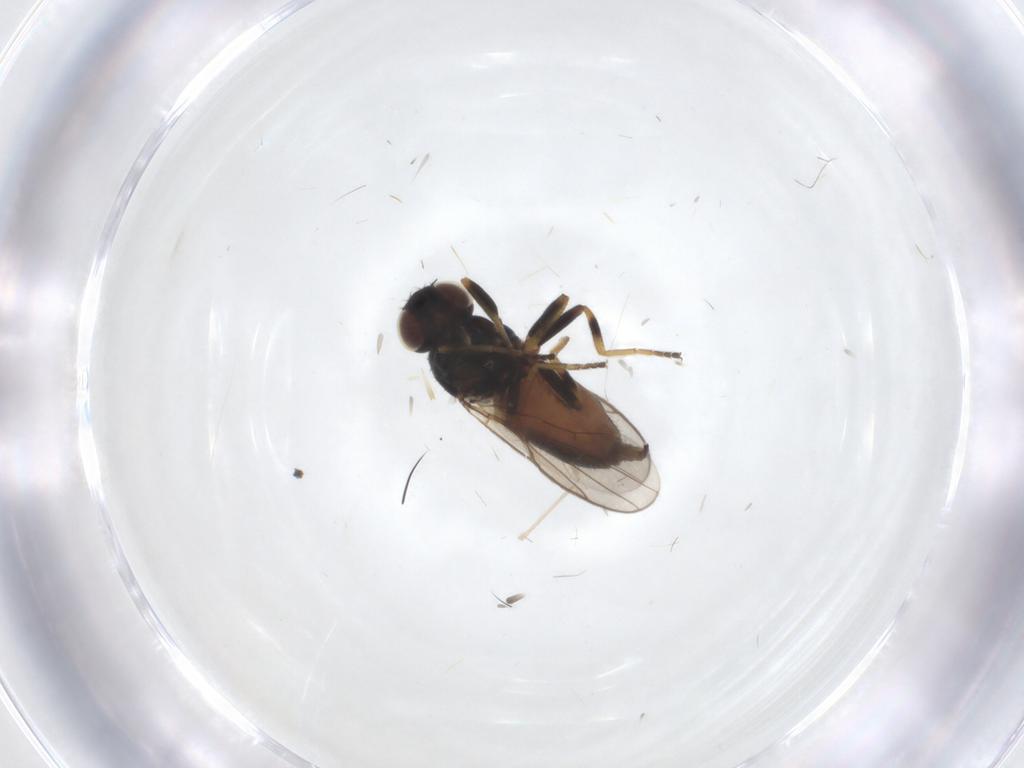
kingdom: Animalia
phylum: Arthropoda
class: Insecta
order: Diptera
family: Chloropidae
